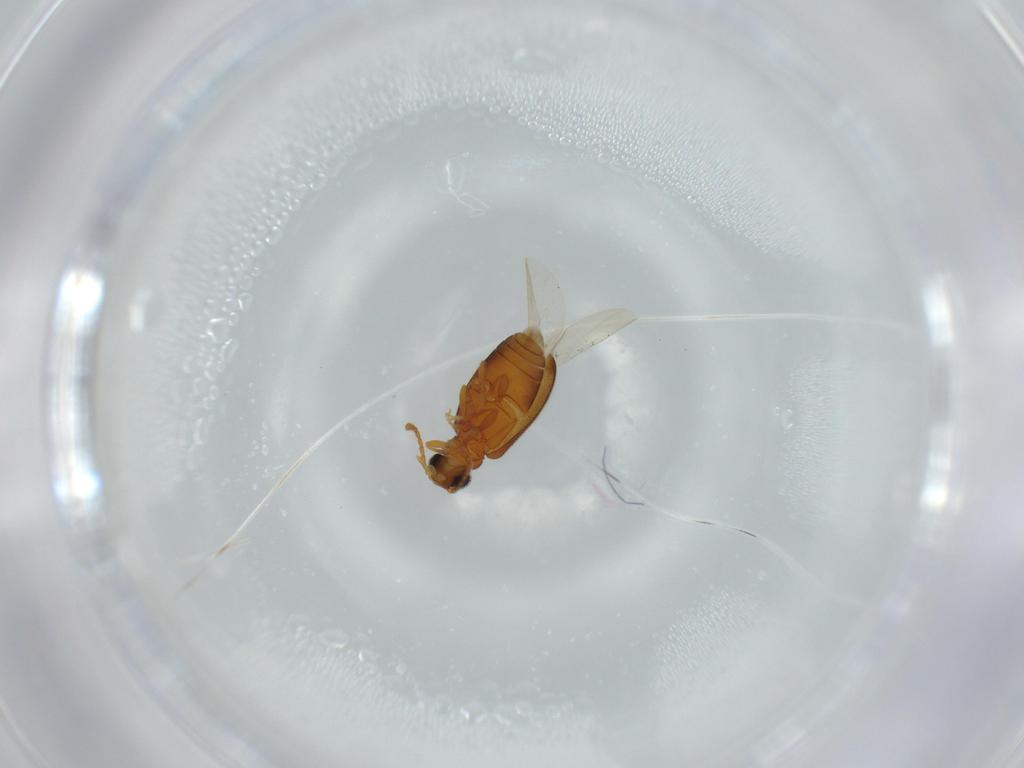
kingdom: Animalia
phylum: Arthropoda
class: Insecta
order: Coleoptera
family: Aderidae
